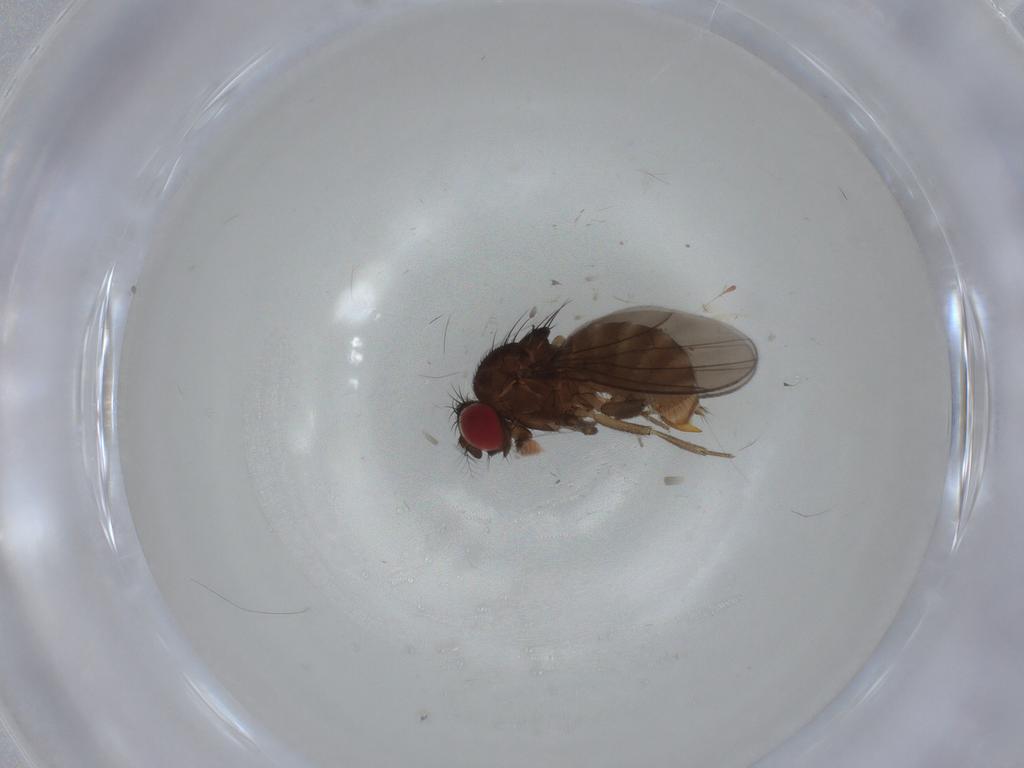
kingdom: Animalia
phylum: Arthropoda
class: Insecta
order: Diptera
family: Drosophilidae
